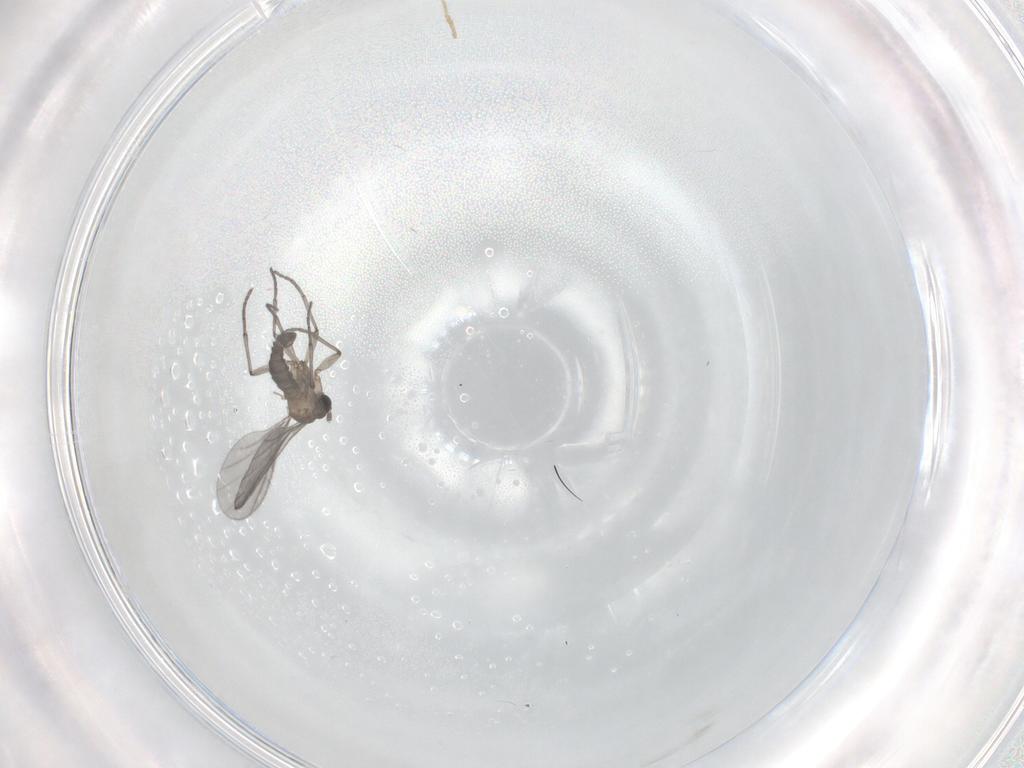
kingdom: Animalia
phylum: Arthropoda
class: Insecta
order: Diptera
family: Sciaridae
